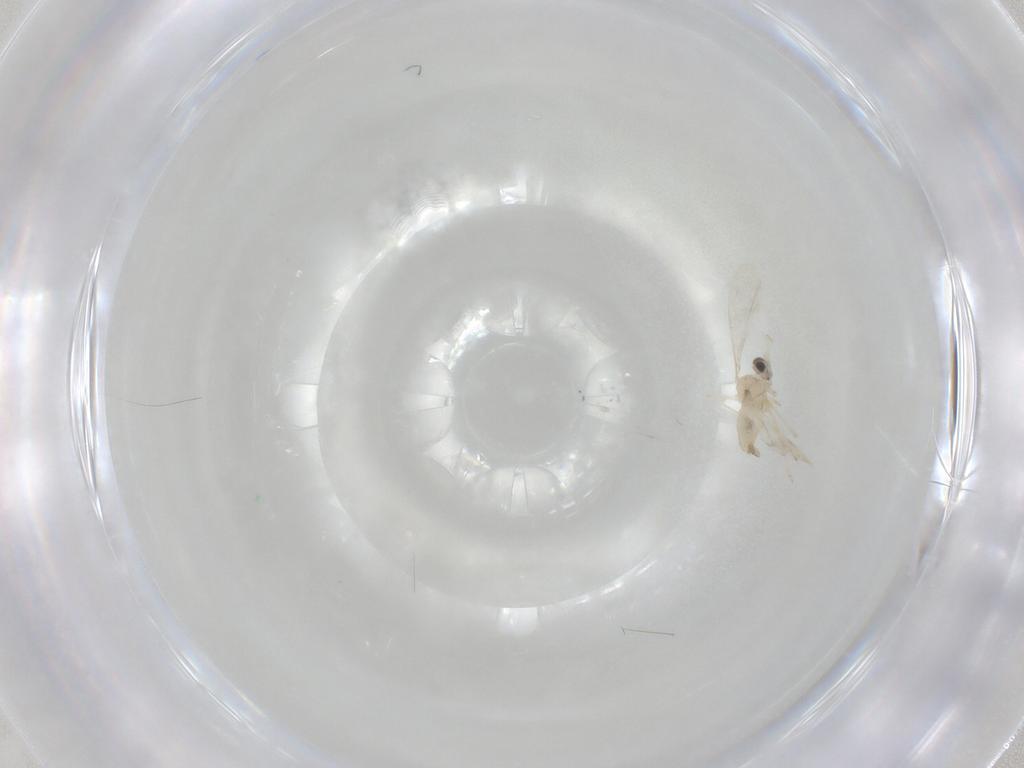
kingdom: Animalia
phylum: Arthropoda
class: Insecta
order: Diptera
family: Cecidomyiidae
